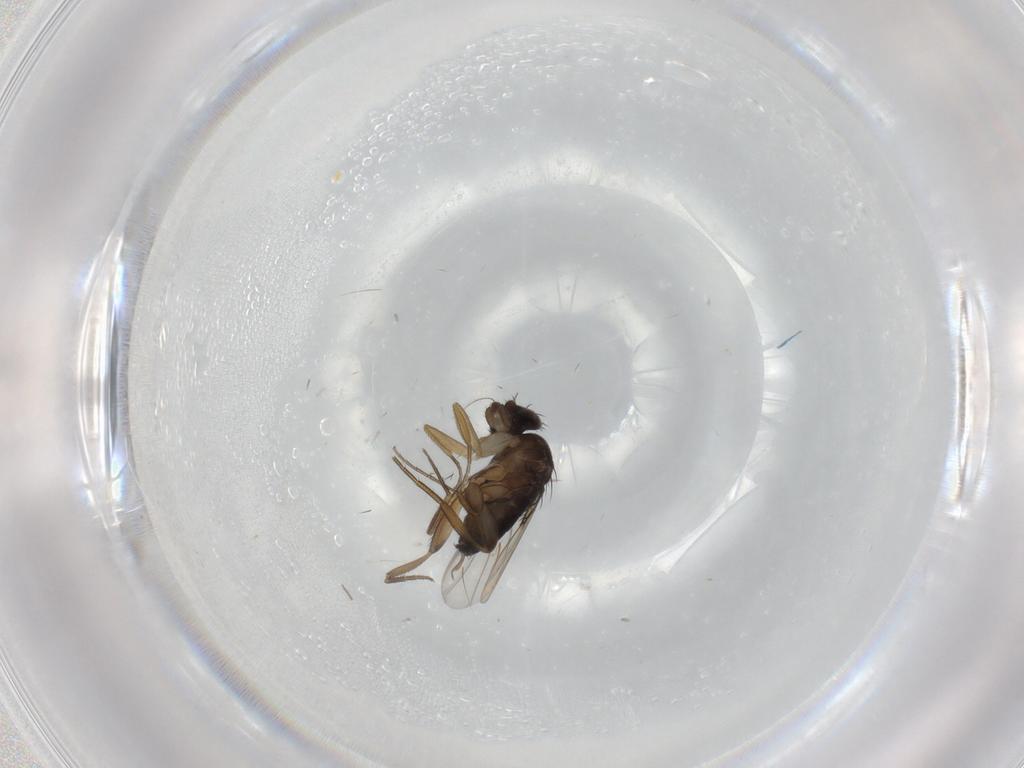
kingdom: Animalia
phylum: Arthropoda
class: Insecta
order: Diptera
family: Phoridae
